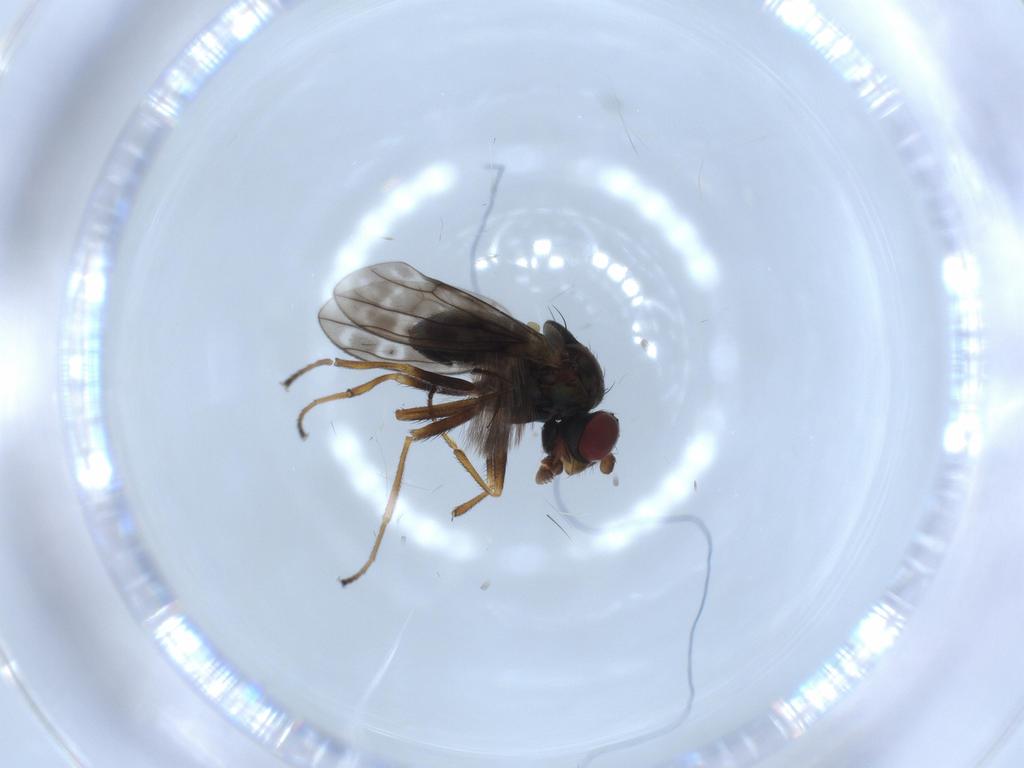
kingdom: Animalia
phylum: Arthropoda
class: Insecta
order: Diptera
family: Ephydridae
